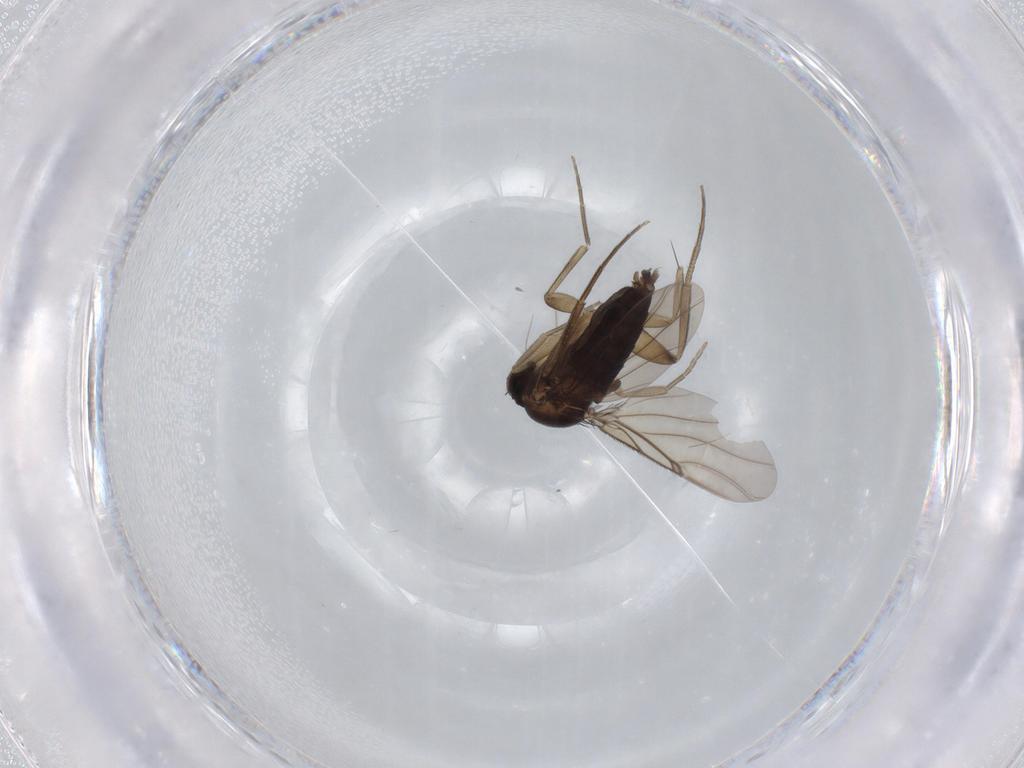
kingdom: Animalia
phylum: Arthropoda
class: Insecta
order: Diptera
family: Phoridae
